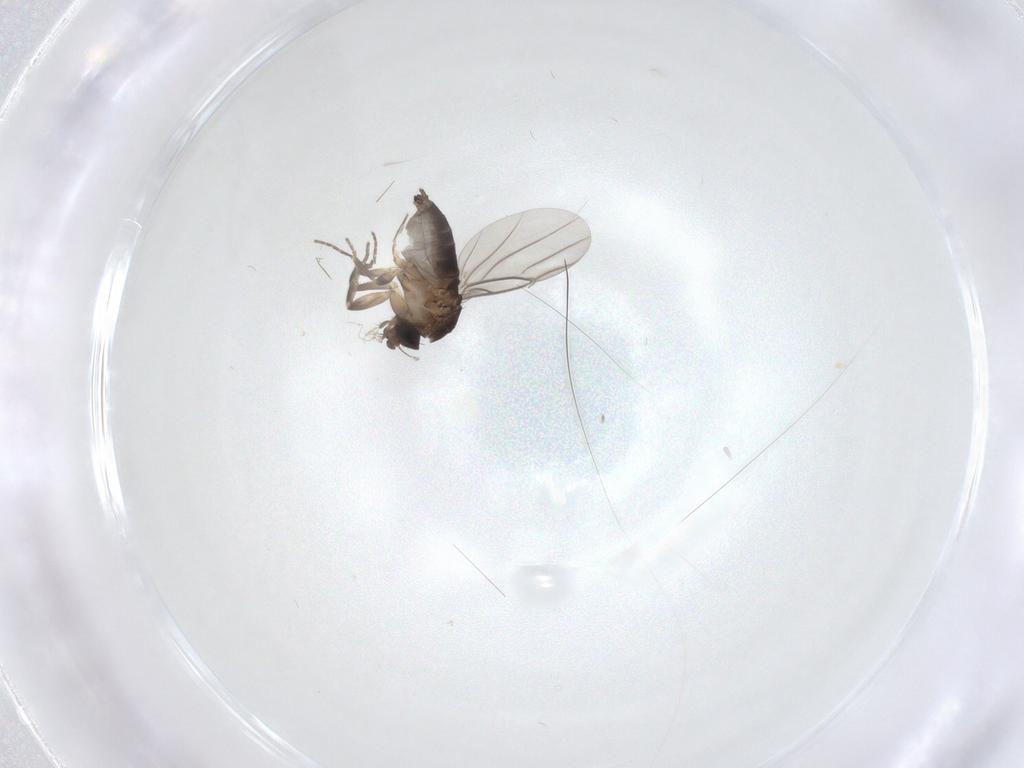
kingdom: Animalia
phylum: Arthropoda
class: Insecta
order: Diptera
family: Phoridae
